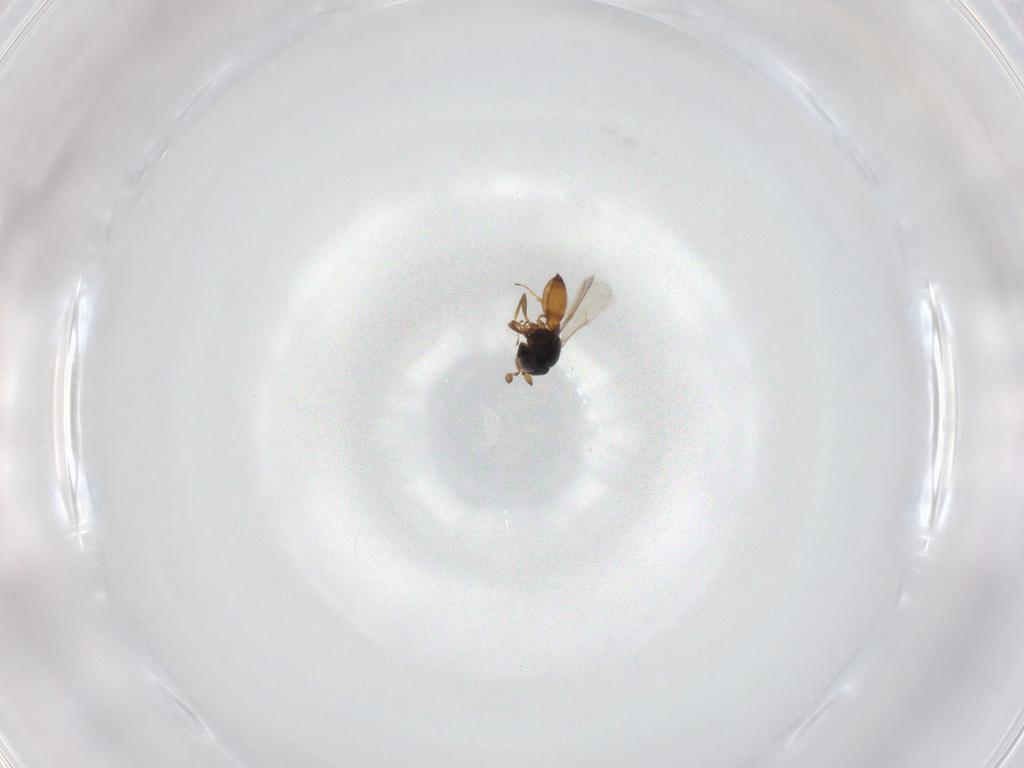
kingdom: Animalia
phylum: Arthropoda
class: Insecta
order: Hymenoptera
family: Scelionidae
